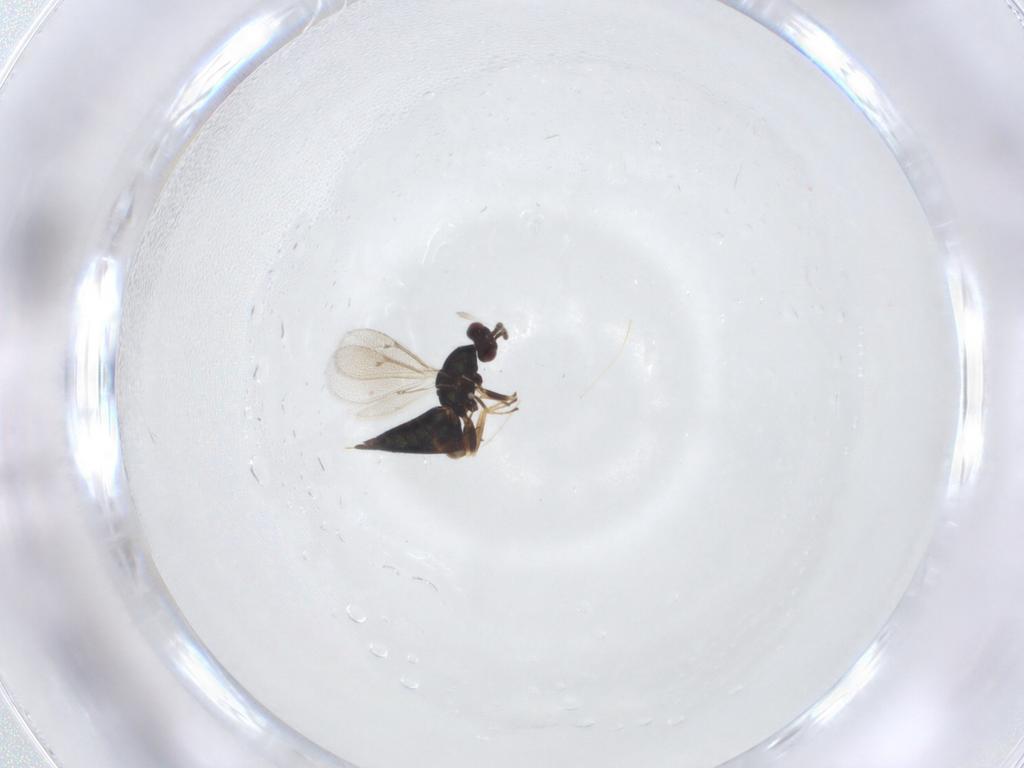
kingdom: Animalia
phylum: Arthropoda
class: Insecta
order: Hymenoptera
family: Eulophidae
